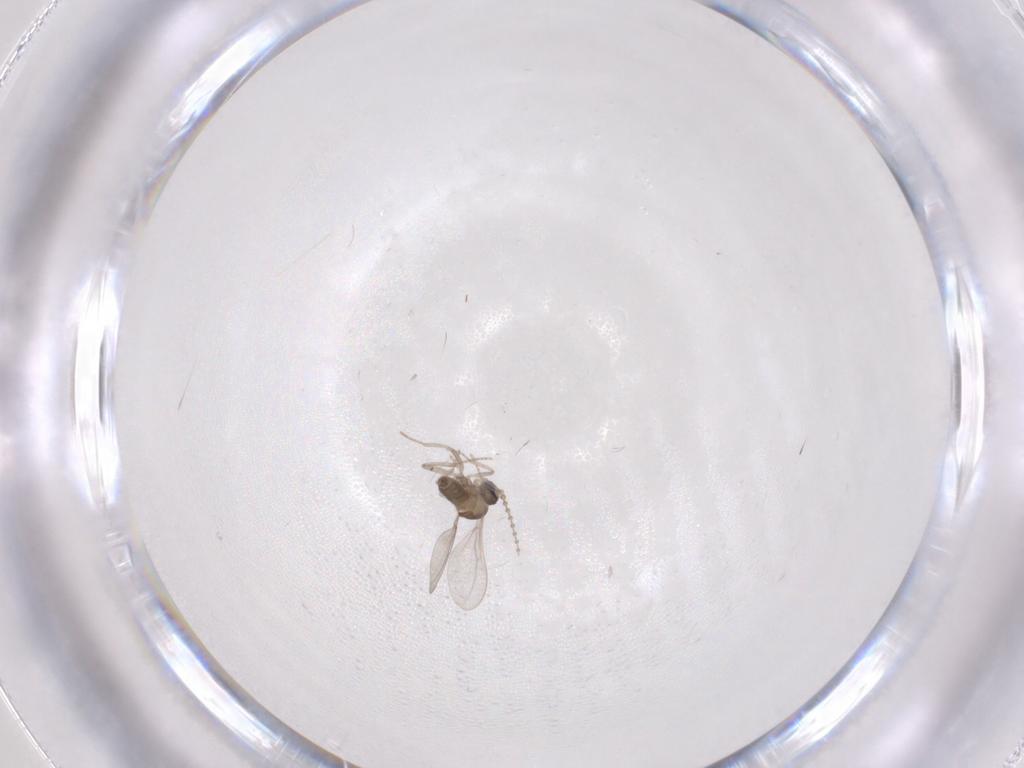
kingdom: Animalia
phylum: Arthropoda
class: Insecta
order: Diptera
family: Cecidomyiidae
